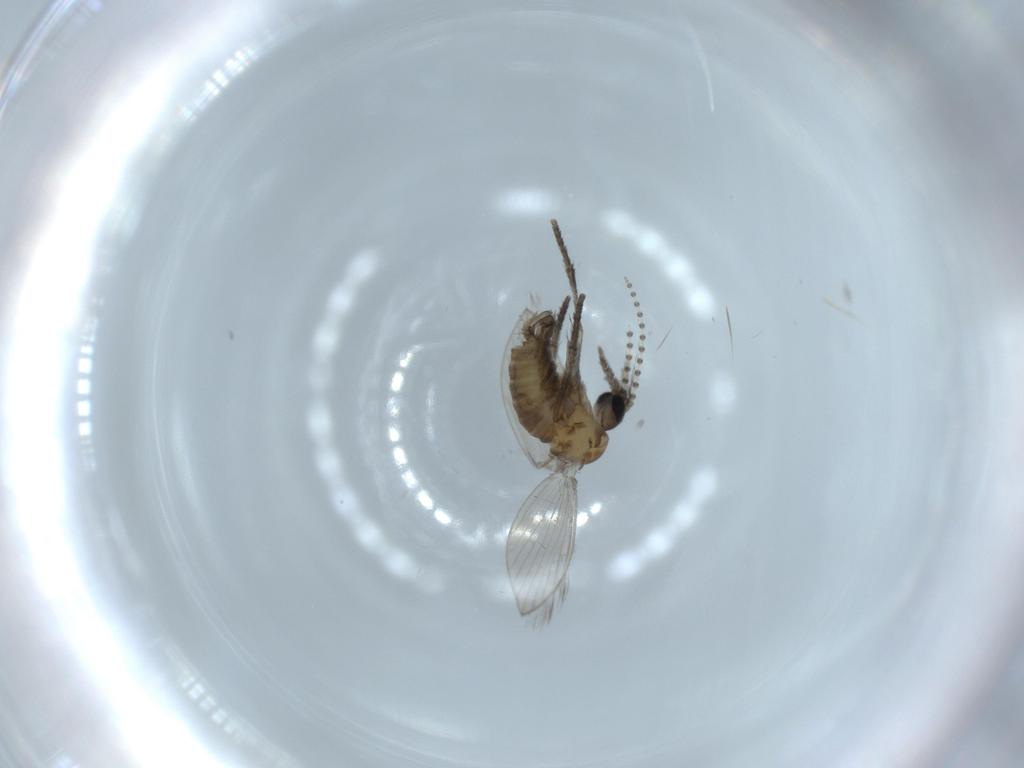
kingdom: Animalia
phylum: Arthropoda
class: Insecta
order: Diptera
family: Psychodidae
